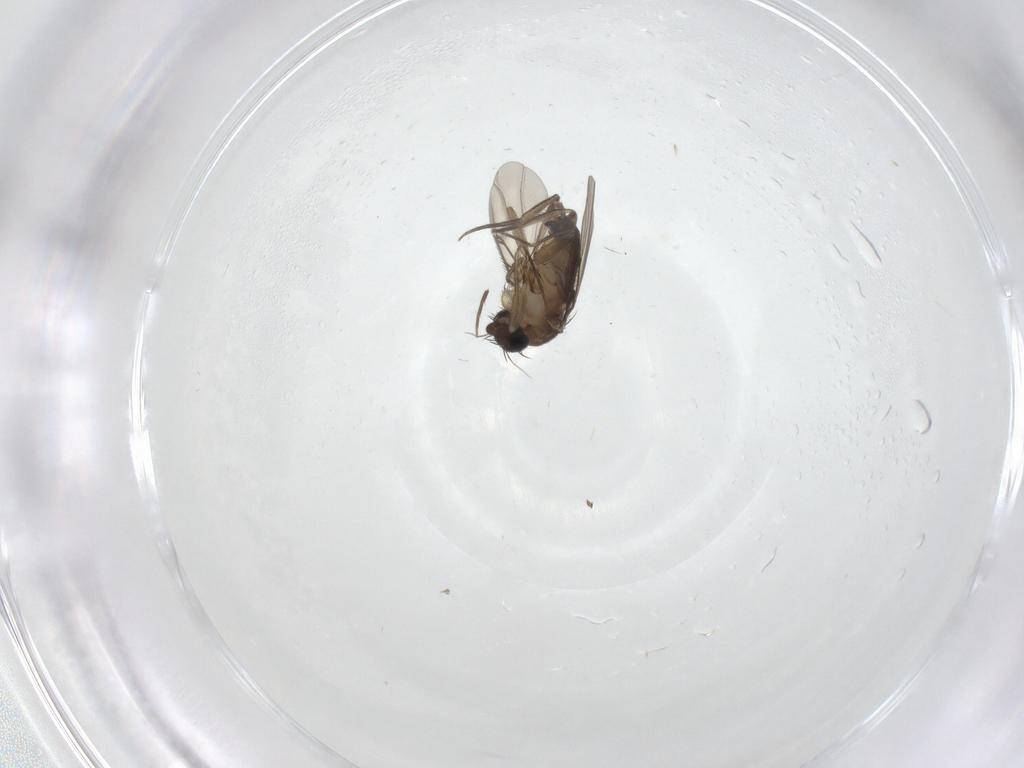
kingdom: Animalia
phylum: Arthropoda
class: Insecta
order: Diptera
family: Phoridae
